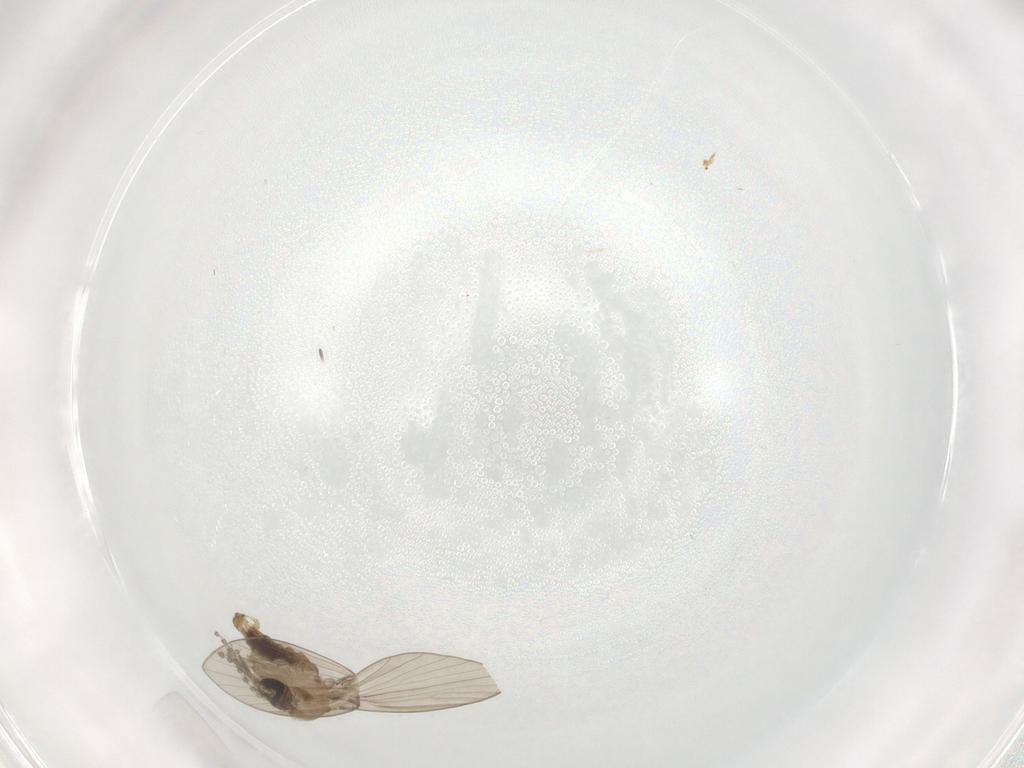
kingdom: Animalia
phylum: Arthropoda
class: Insecta
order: Diptera
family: Psychodidae
